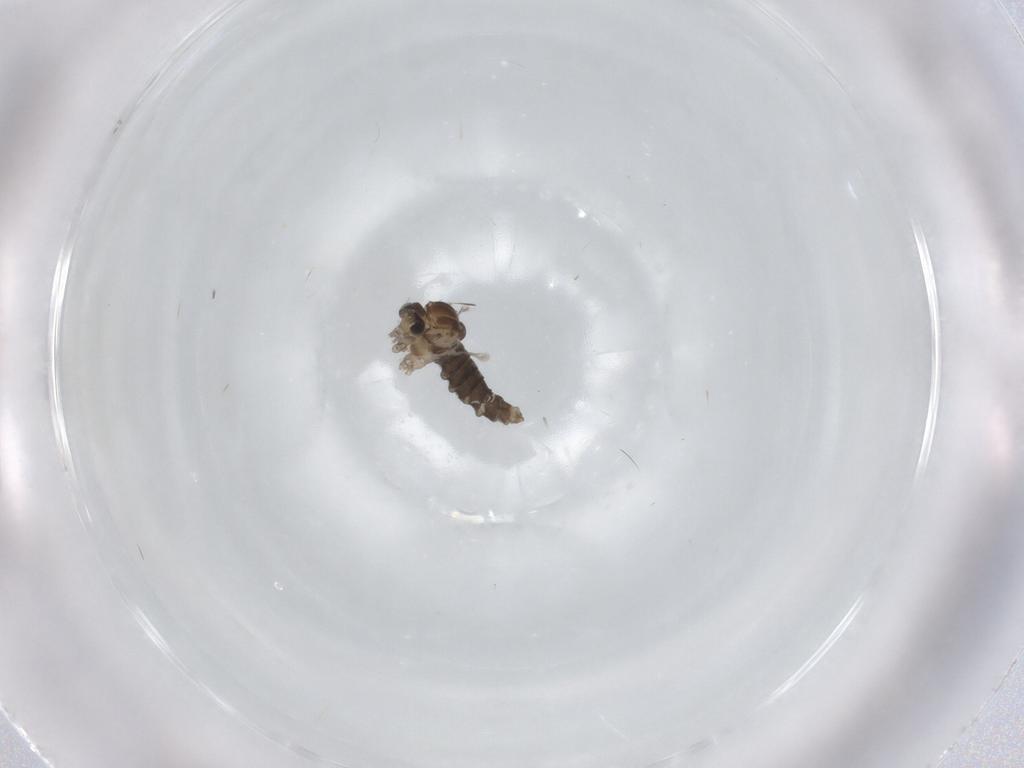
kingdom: Animalia
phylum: Arthropoda
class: Insecta
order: Diptera
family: Cecidomyiidae
